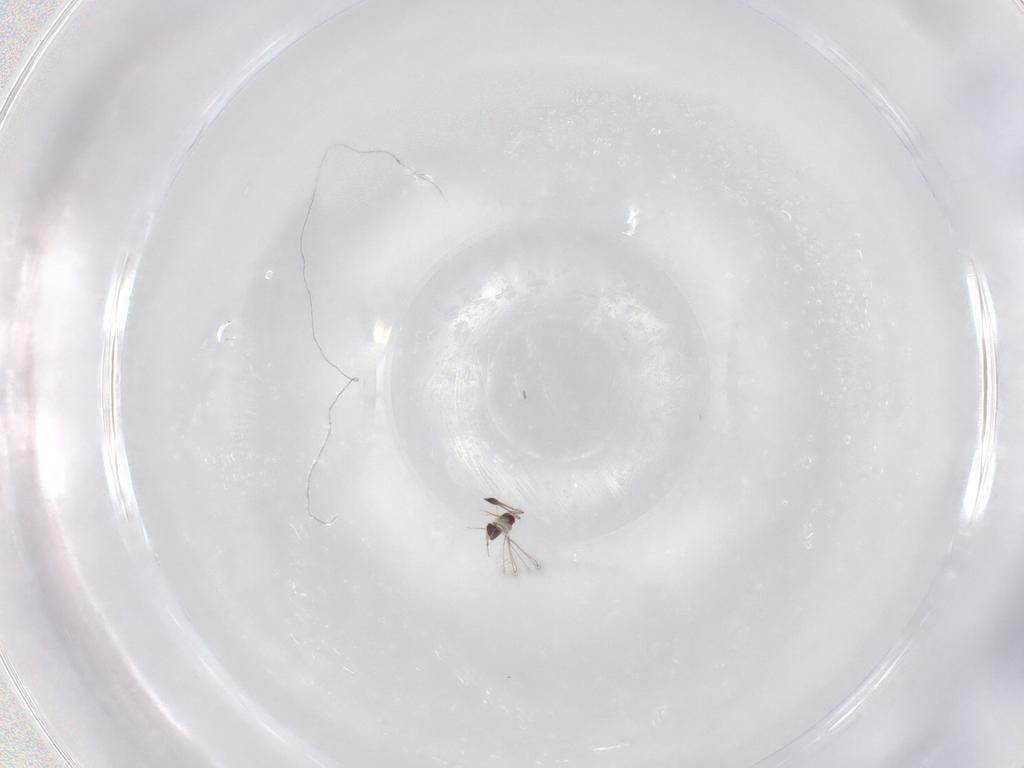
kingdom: Animalia
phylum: Arthropoda
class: Insecta
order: Hymenoptera
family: Mymaridae
